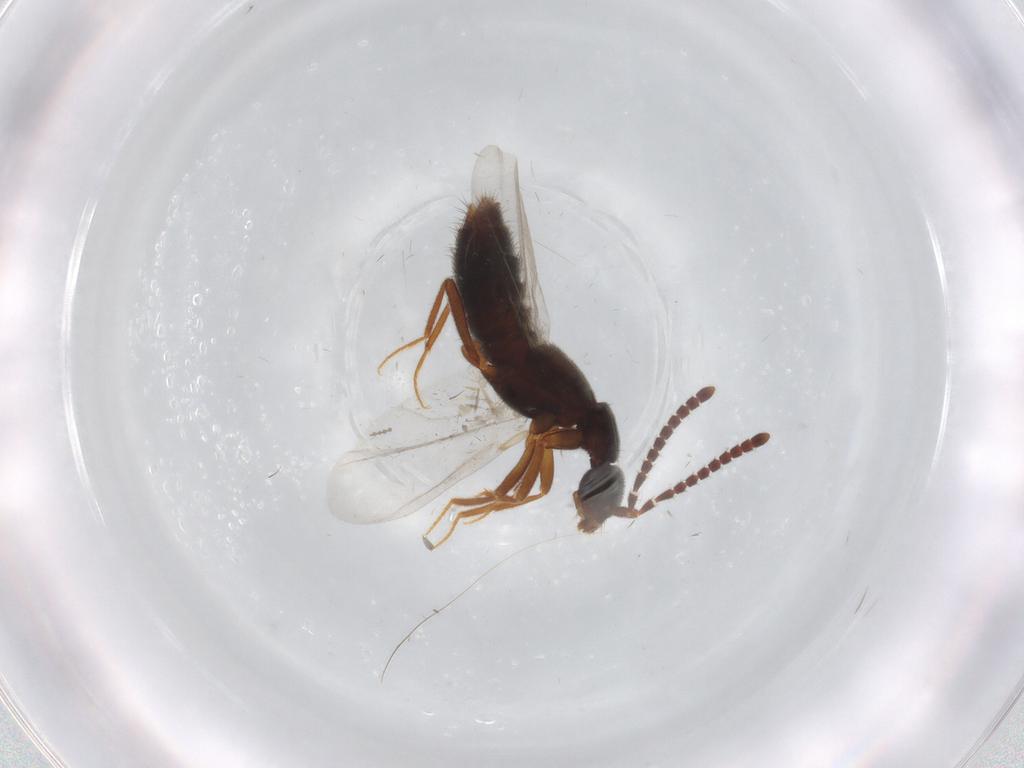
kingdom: Animalia
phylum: Arthropoda
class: Insecta
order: Coleoptera
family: Staphylinidae
